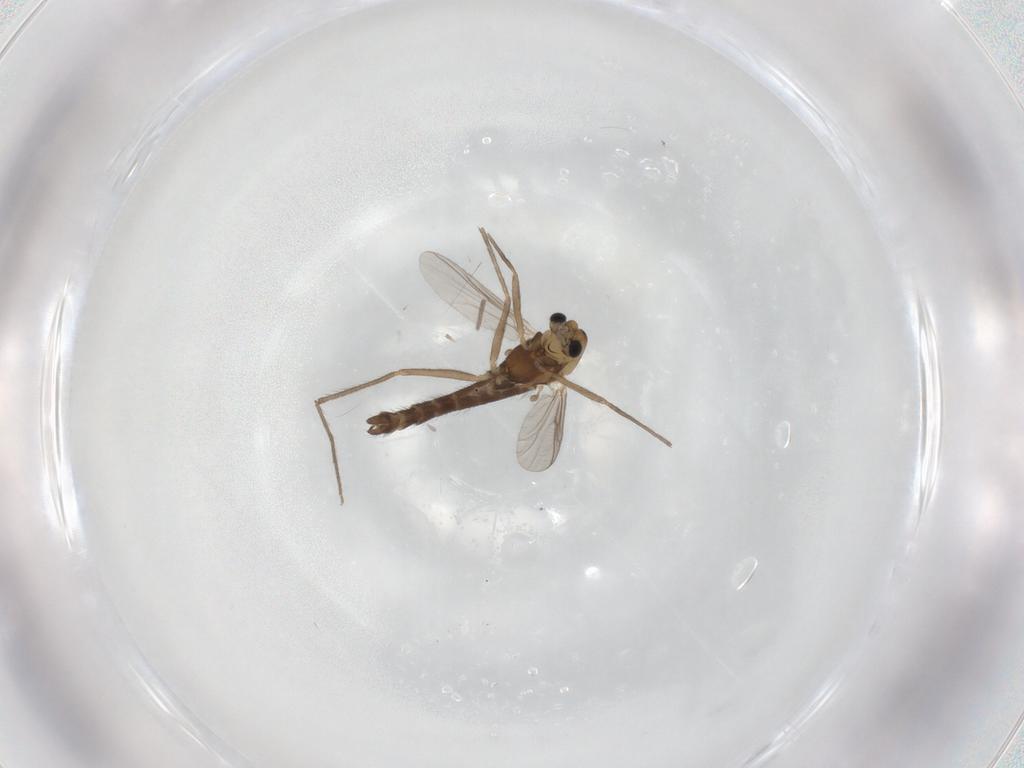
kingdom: Animalia
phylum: Arthropoda
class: Insecta
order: Diptera
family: Chironomidae
